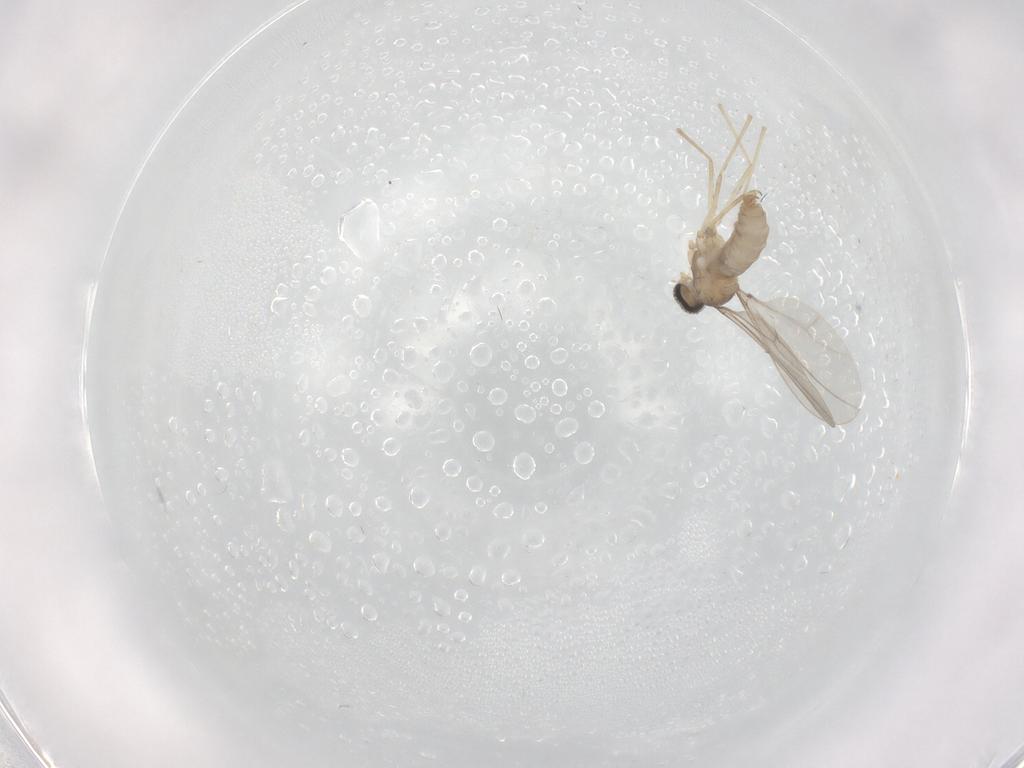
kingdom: Animalia
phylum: Arthropoda
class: Insecta
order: Diptera
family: Cecidomyiidae
